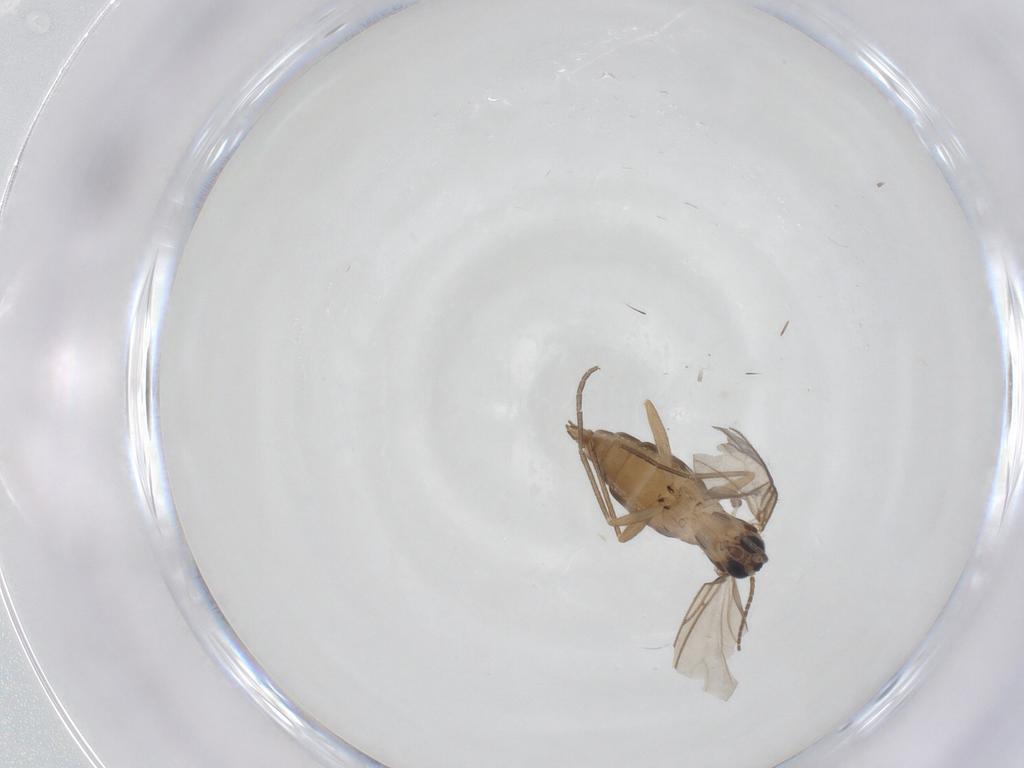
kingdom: Animalia
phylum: Arthropoda
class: Insecta
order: Diptera
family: Sciaridae
